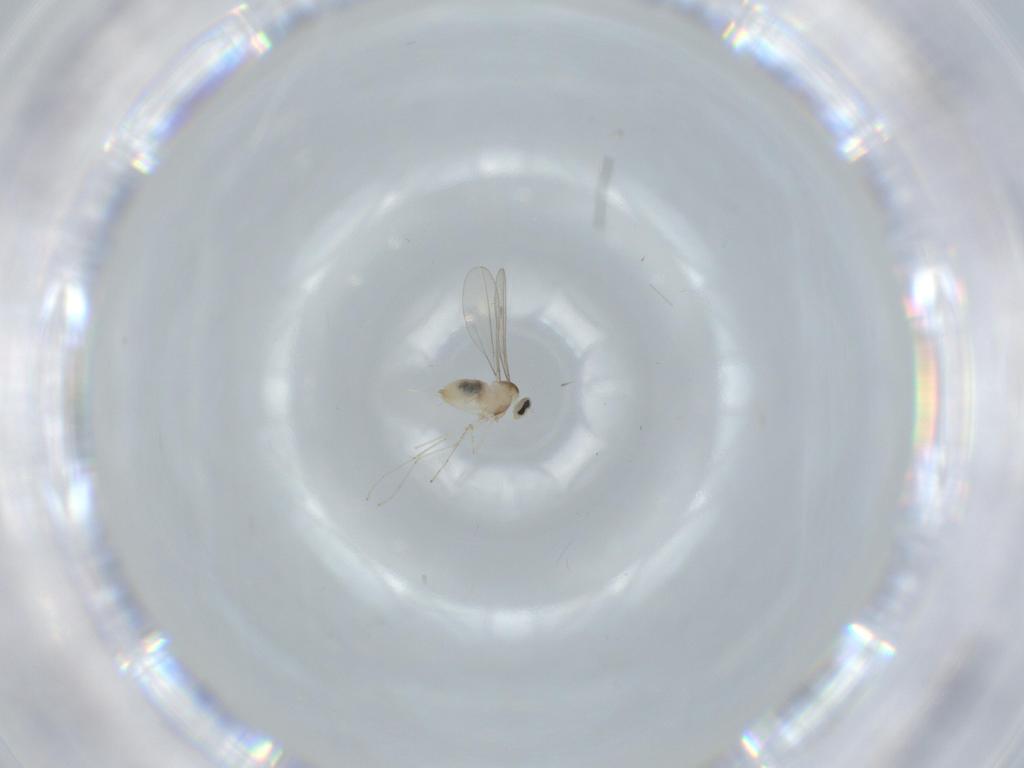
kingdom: Animalia
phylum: Arthropoda
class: Insecta
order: Diptera
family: Cecidomyiidae
